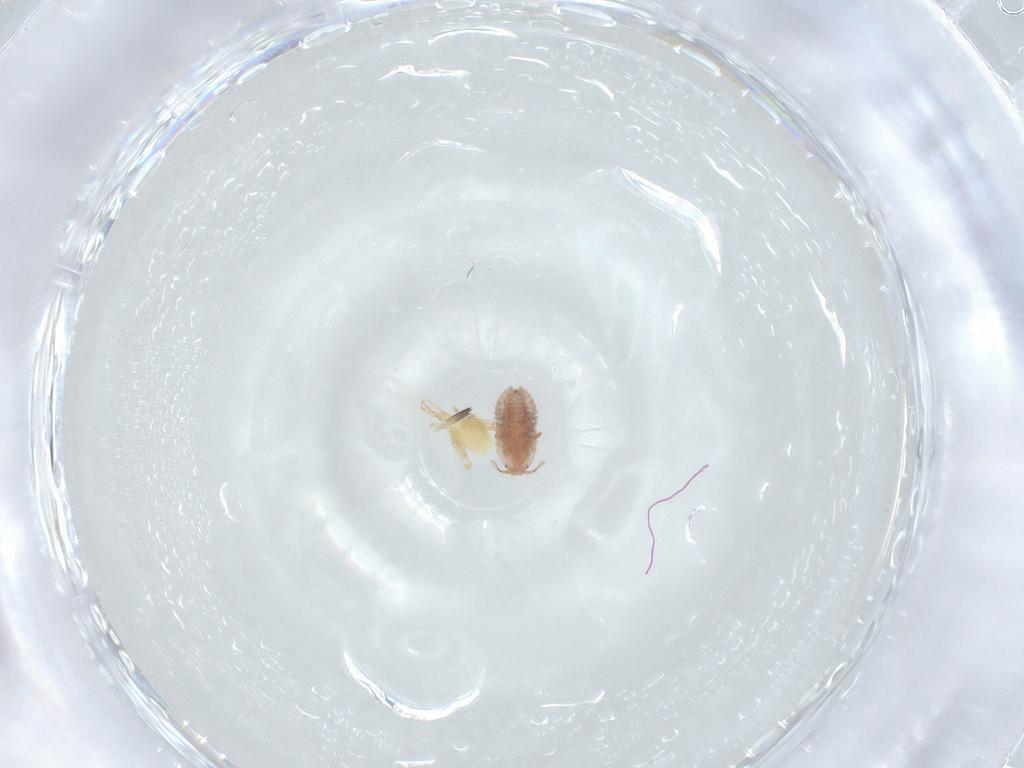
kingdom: Animalia
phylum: Arthropoda
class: Arachnida
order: Trombidiformes
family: Cunaxidae
